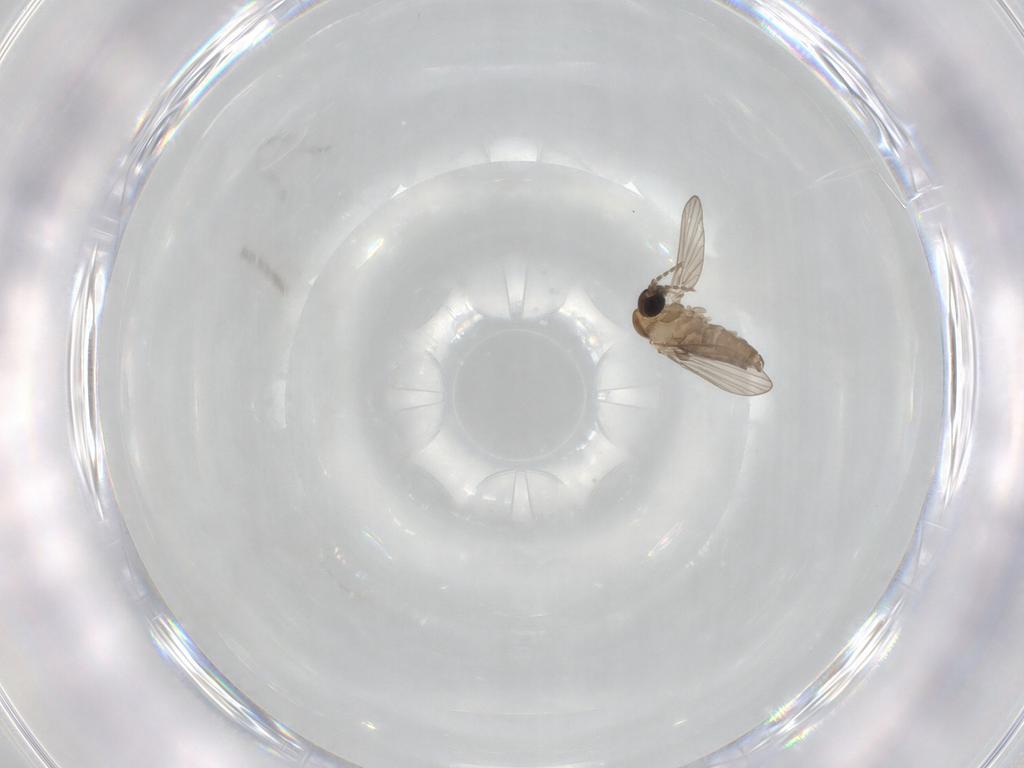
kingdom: Animalia
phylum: Arthropoda
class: Insecta
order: Diptera
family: Psychodidae
